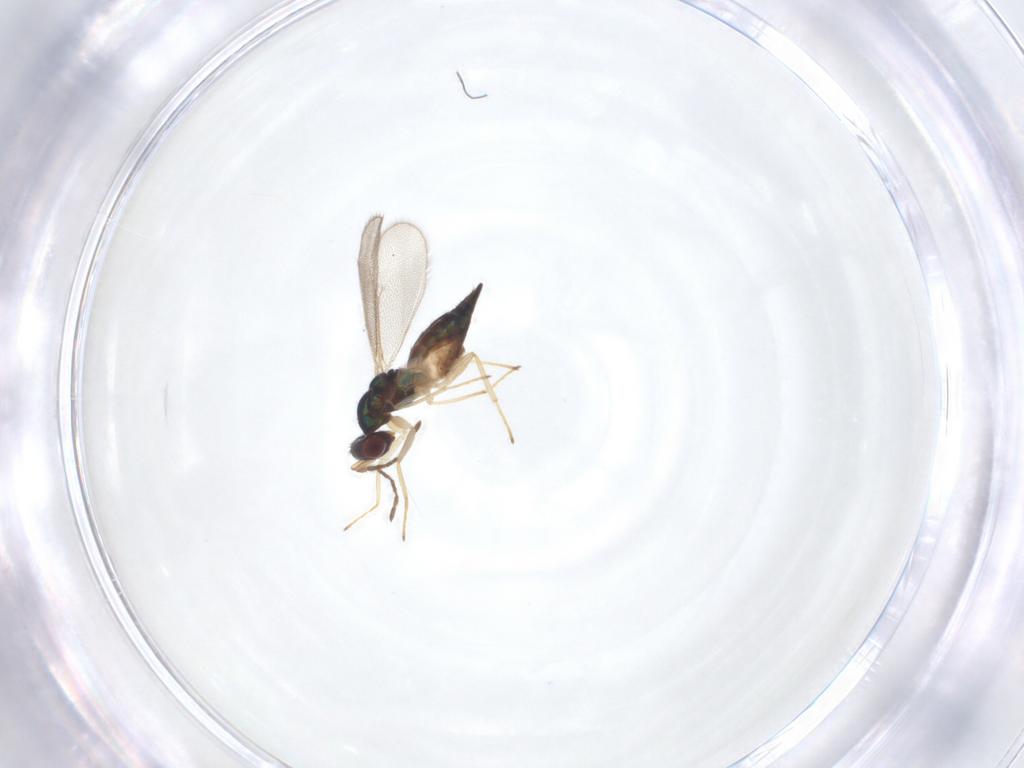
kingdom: Animalia
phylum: Arthropoda
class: Insecta
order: Hymenoptera
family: Eulophidae
